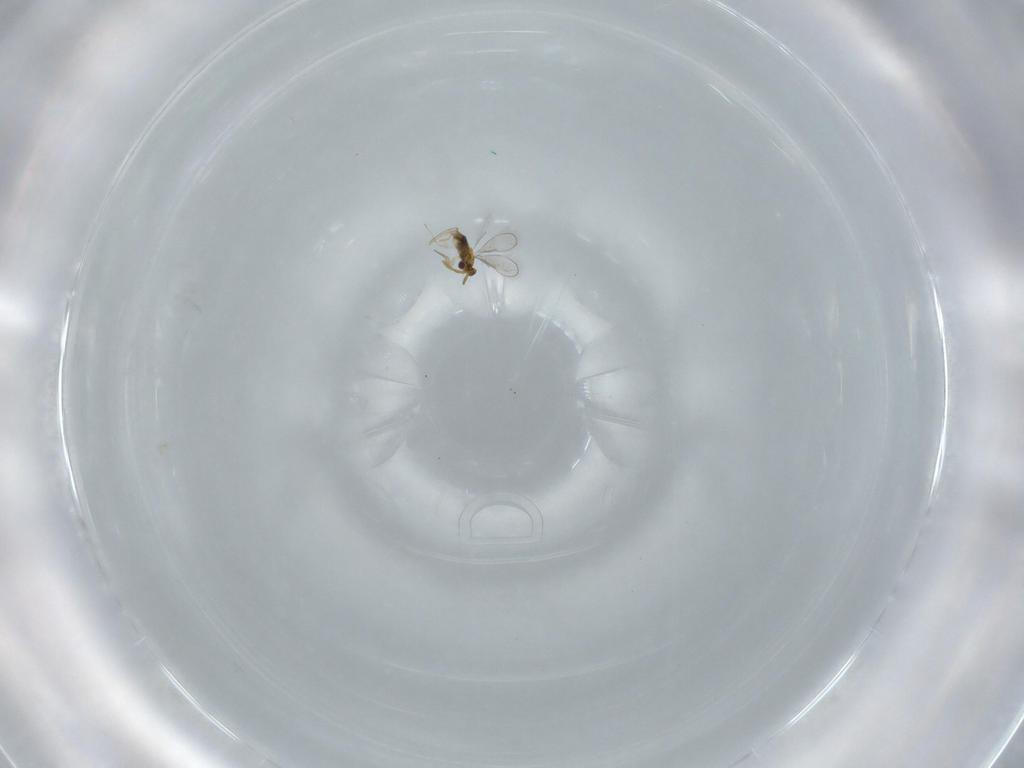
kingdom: Animalia
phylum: Arthropoda
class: Insecta
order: Hymenoptera
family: Aphelinidae
